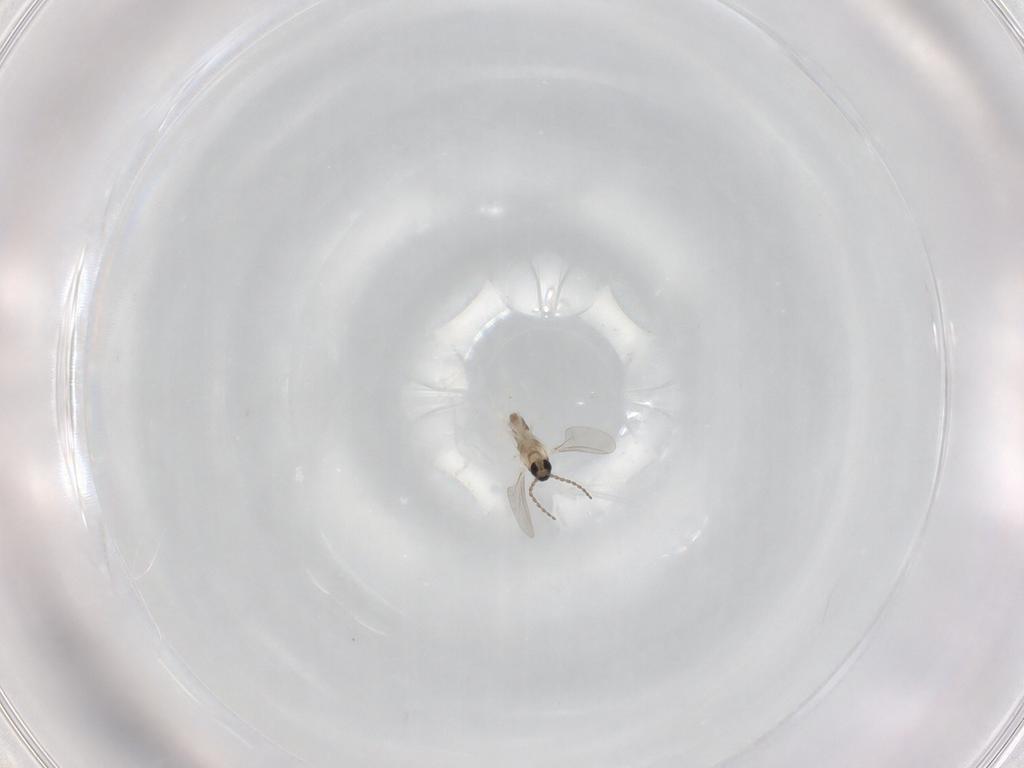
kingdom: Animalia
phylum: Arthropoda
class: Insecta
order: Diptera
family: Cecidomyiidae
